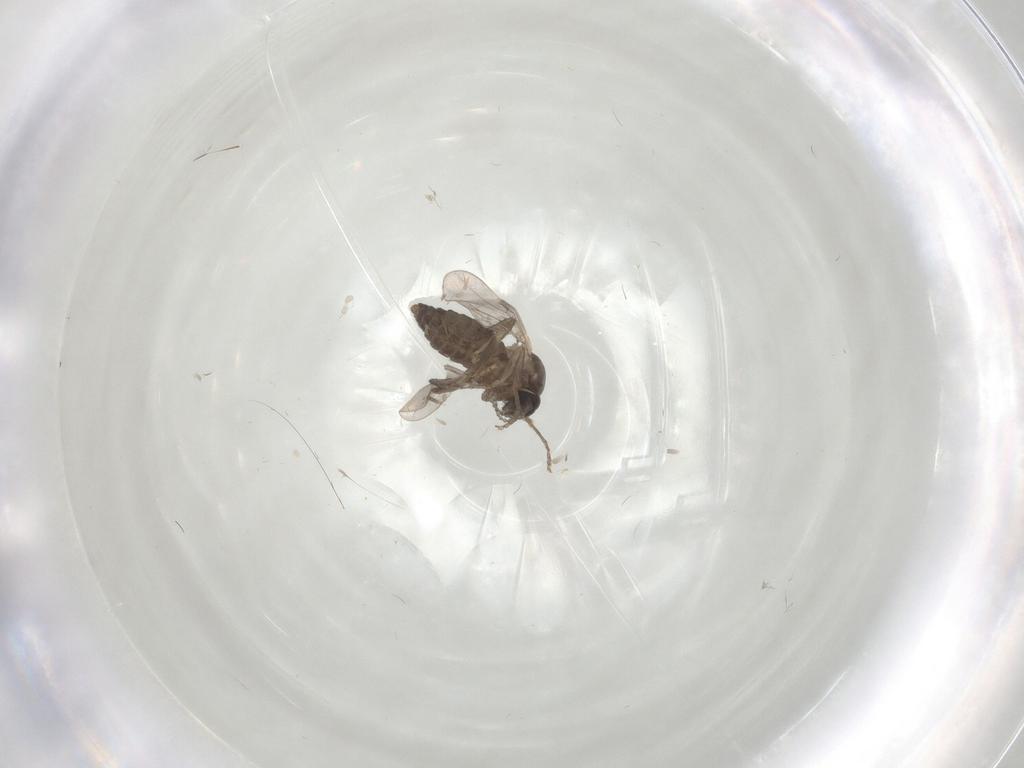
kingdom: Animalia
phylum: Arthropoda
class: Insecta
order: Diptera
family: Ceratopogonidae
